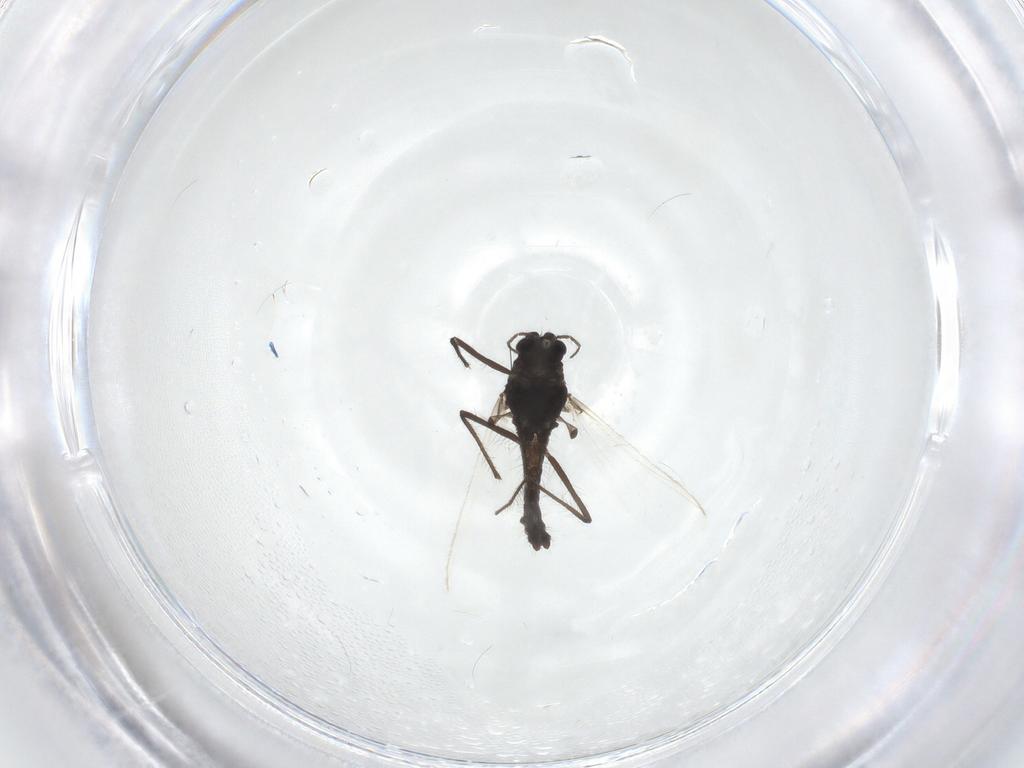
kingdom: Animalia
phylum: Arthropoda
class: Insecta
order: Diptera
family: Chironomidae
